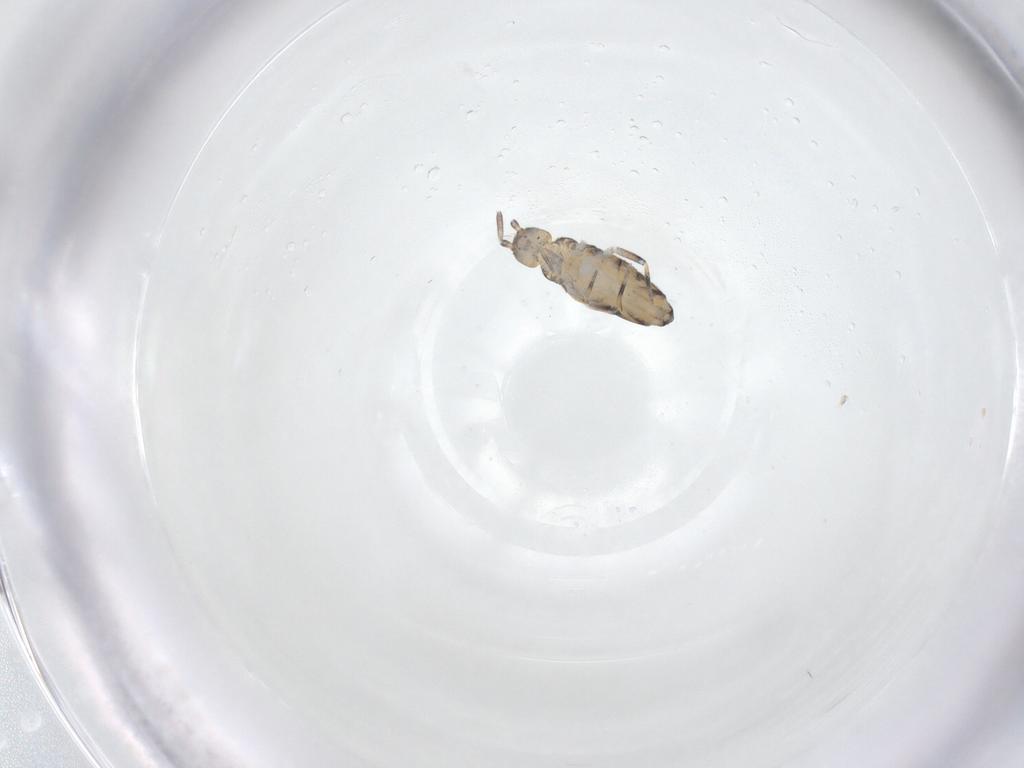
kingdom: Animalia
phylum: Arthropoda
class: Collembola
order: Entomobryomorpha
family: Entomobryidae
